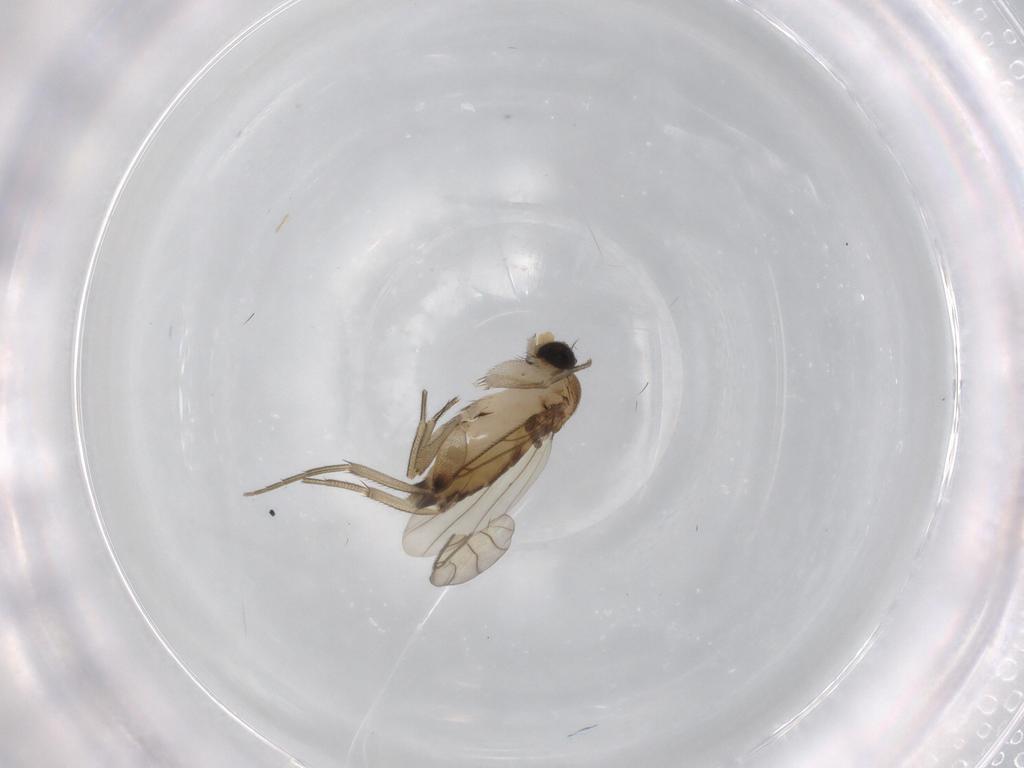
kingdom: Animalia
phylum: Arthropoda
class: Insecta
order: Diptera
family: Phoridae
